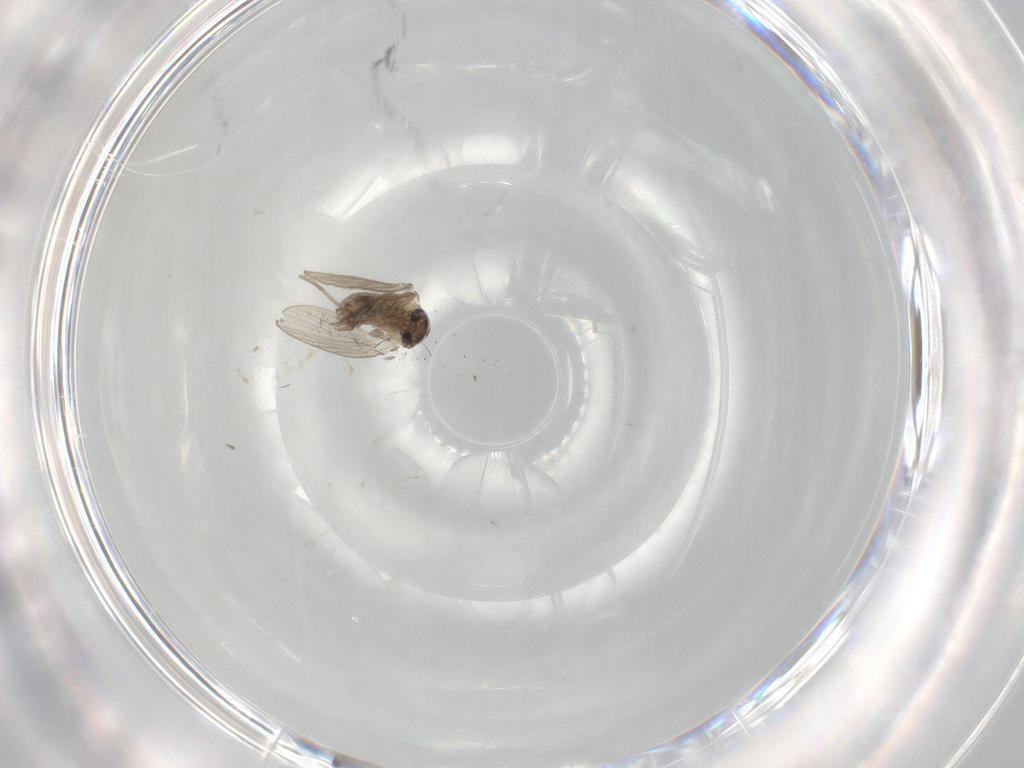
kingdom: Animalia
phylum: Arthropoda
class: Insecta
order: Diptera
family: Psychodidae
